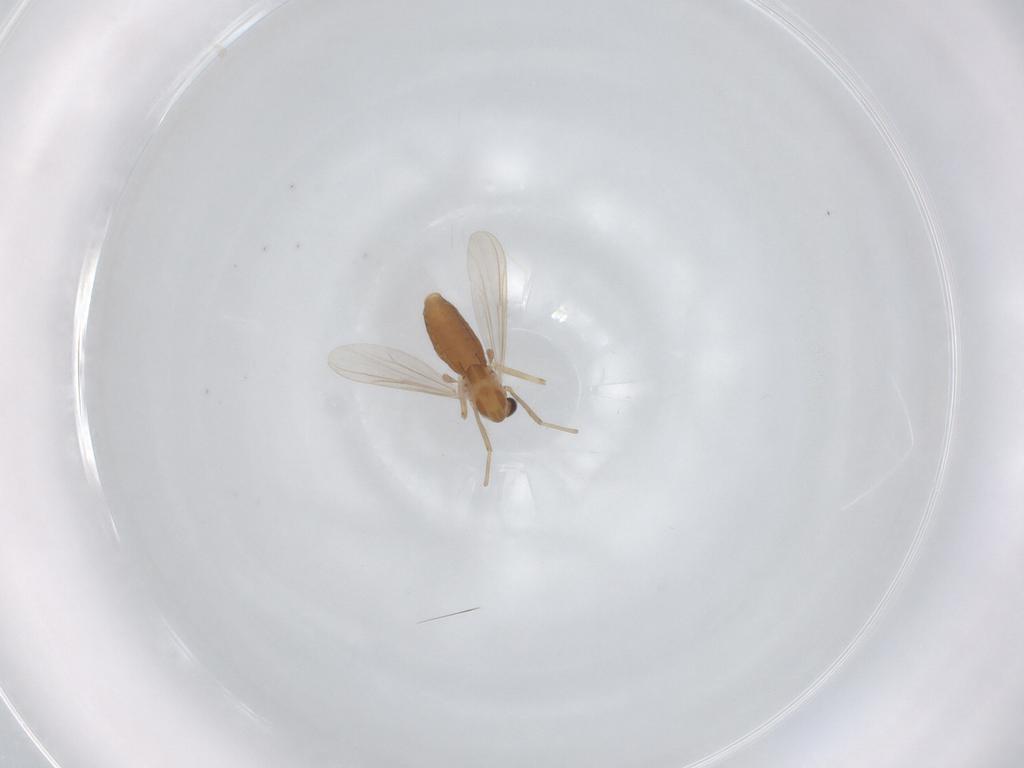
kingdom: Animalia
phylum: Arthropoda
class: Insecta
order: Diptera
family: Chironomidae
